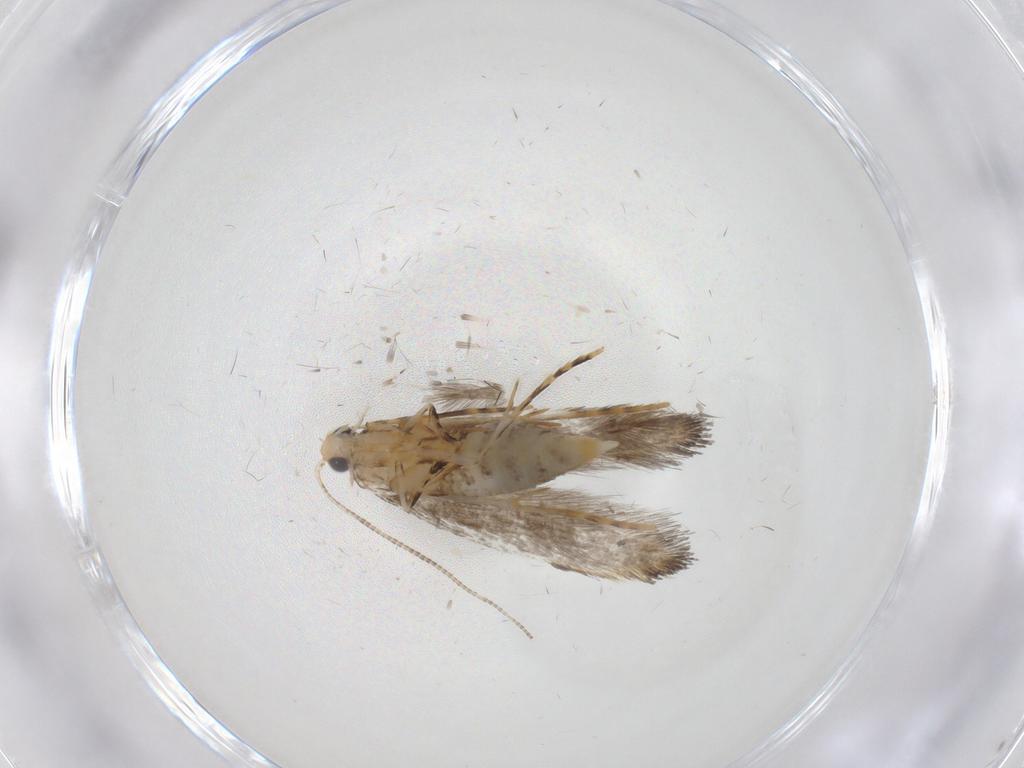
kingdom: Animalia
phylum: Arthropoda
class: Insecta
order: Lepidoptera
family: Tineidae
